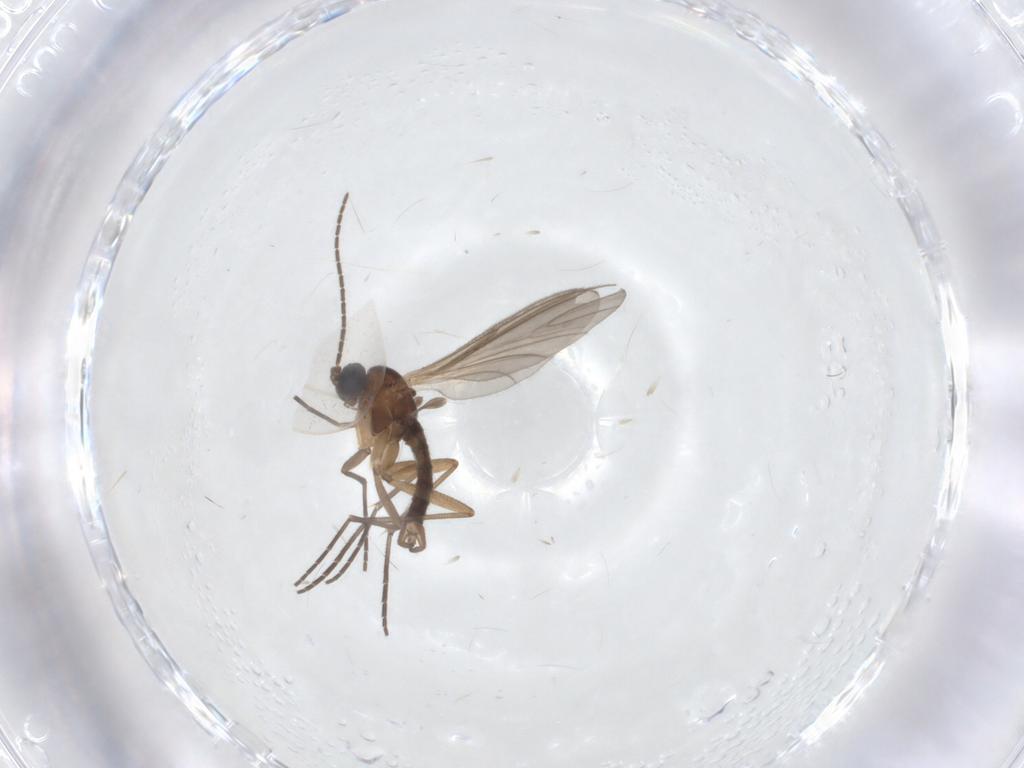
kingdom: Animalia
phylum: Arthropoda
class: Insecta
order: Diptera
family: Sciaridae
